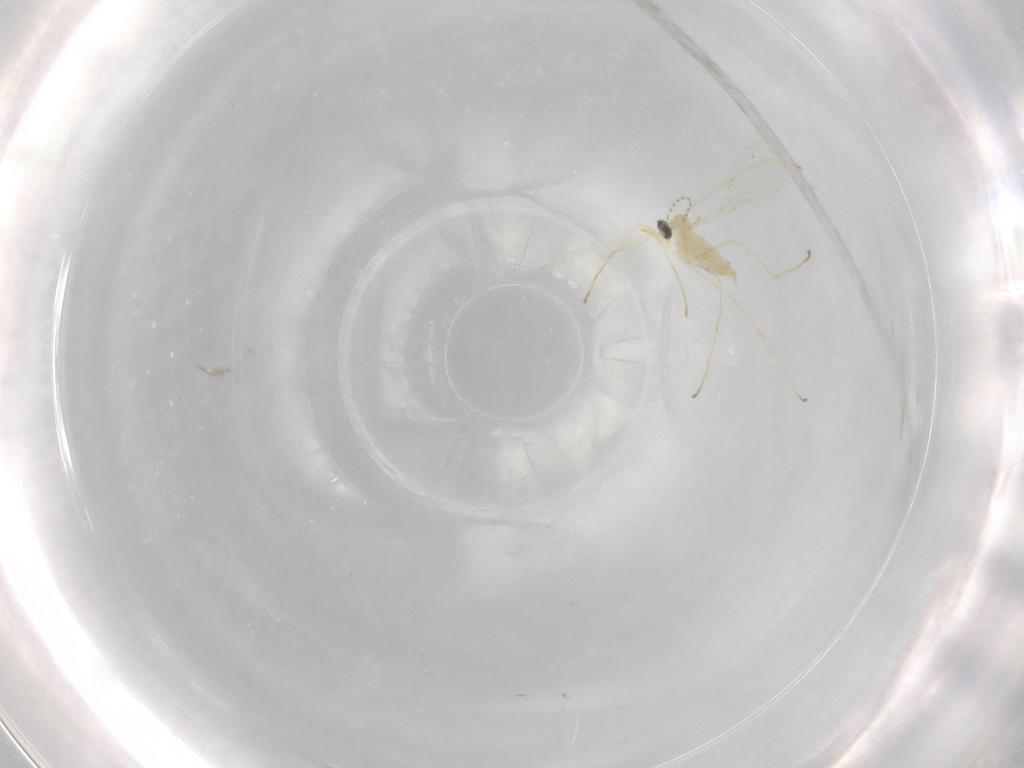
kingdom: Animalia
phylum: Arthropoda
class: Insecta
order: Diptera
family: Cecidomyiidae
